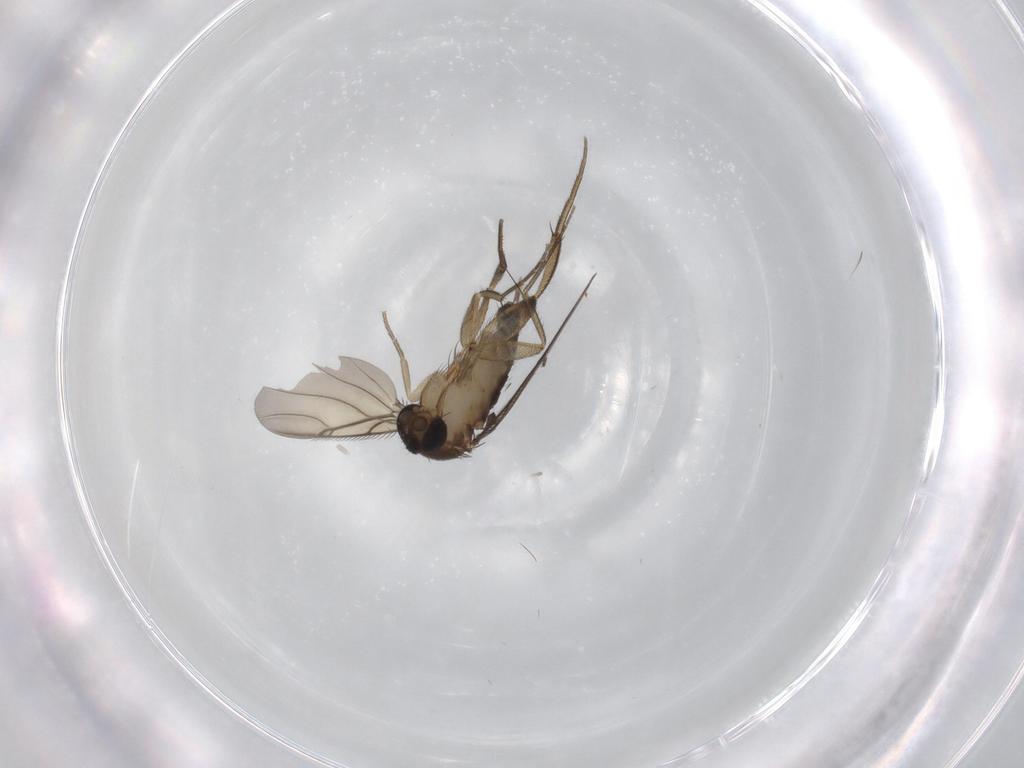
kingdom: Animalia
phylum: Arthropoda
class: Insecta
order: Diptera
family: Phoridae
